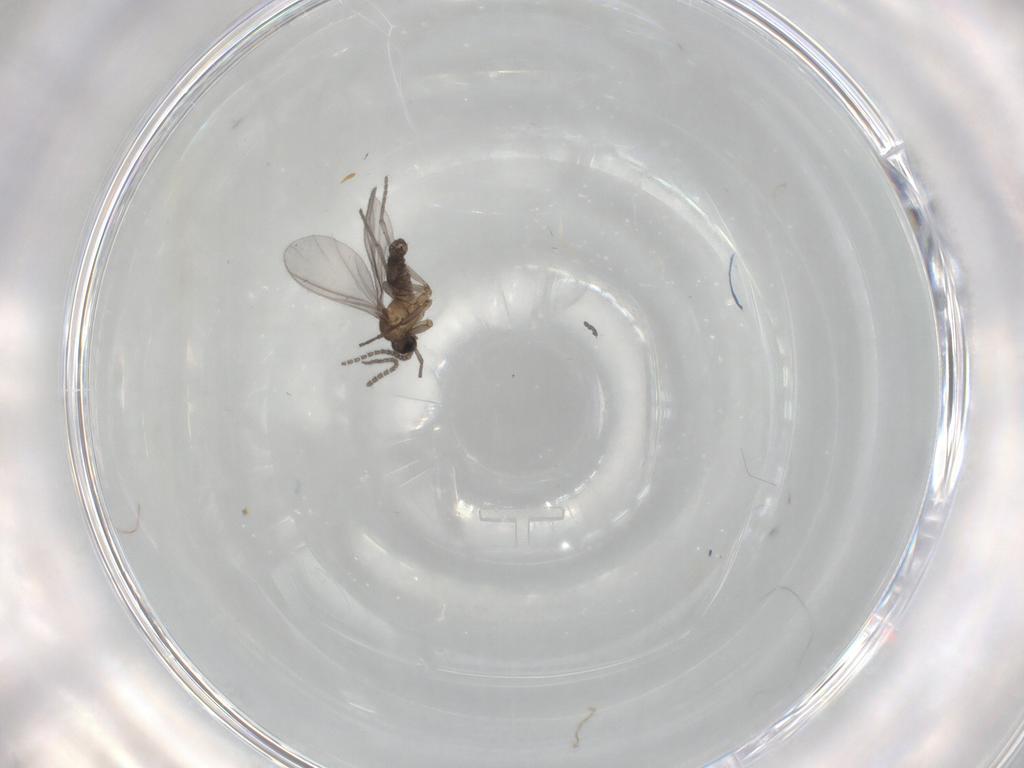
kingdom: Animalia
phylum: Arthropoda
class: Insecta
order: Diptera
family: Sciaridae
